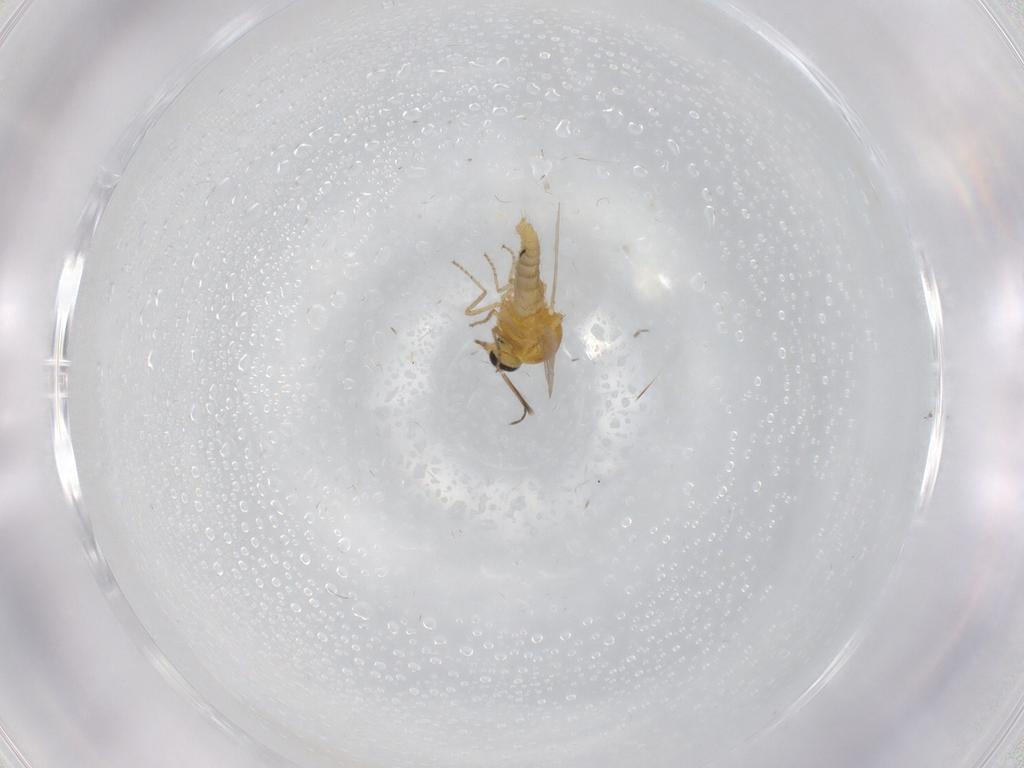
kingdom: Animalia
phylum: Arthropoda
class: Insecta
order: Diptera
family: Ceratopogonidae
